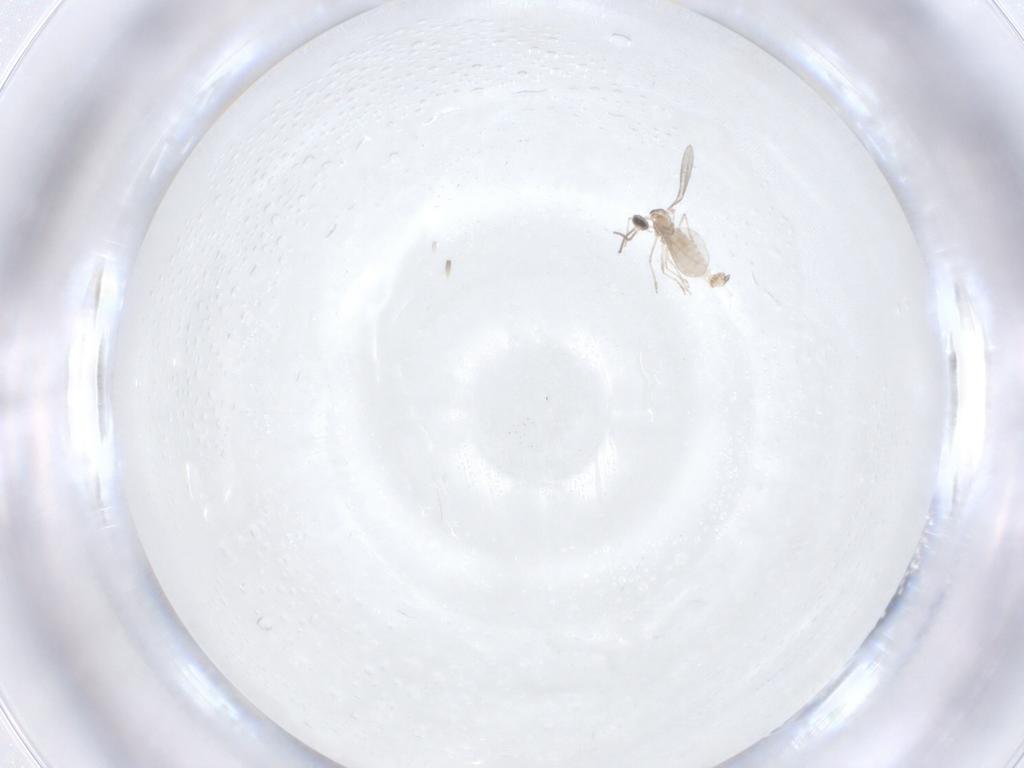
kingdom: Animalia
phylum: Arthropoda
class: Insecta
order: Diptera
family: Cecidomyiidae
